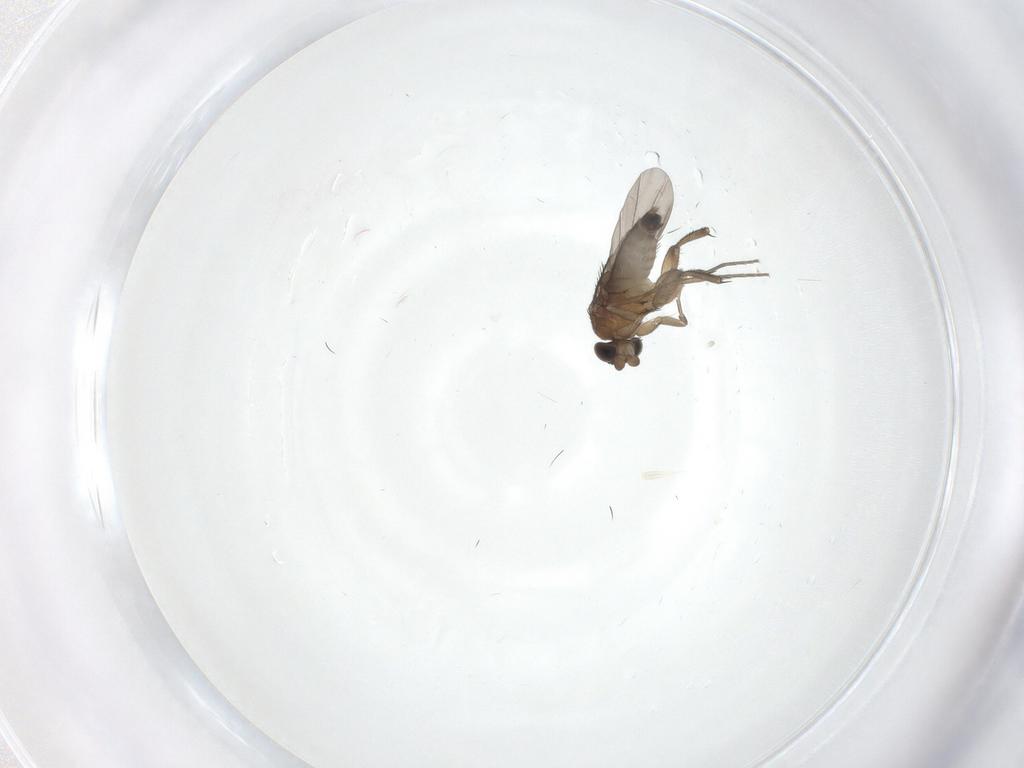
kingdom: Animalia
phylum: Arthropoda
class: Insecta
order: Diptera
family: Phoridae
